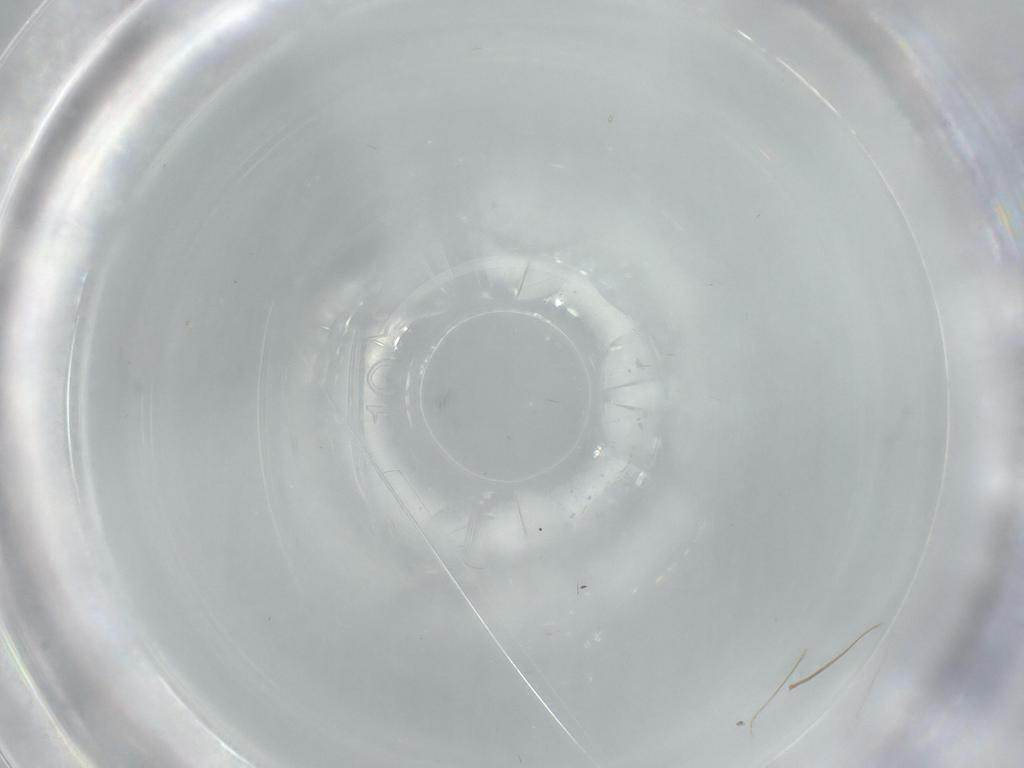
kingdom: Animalia
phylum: Arthropoda
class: Insecta
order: Diptera
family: Psychodidae
